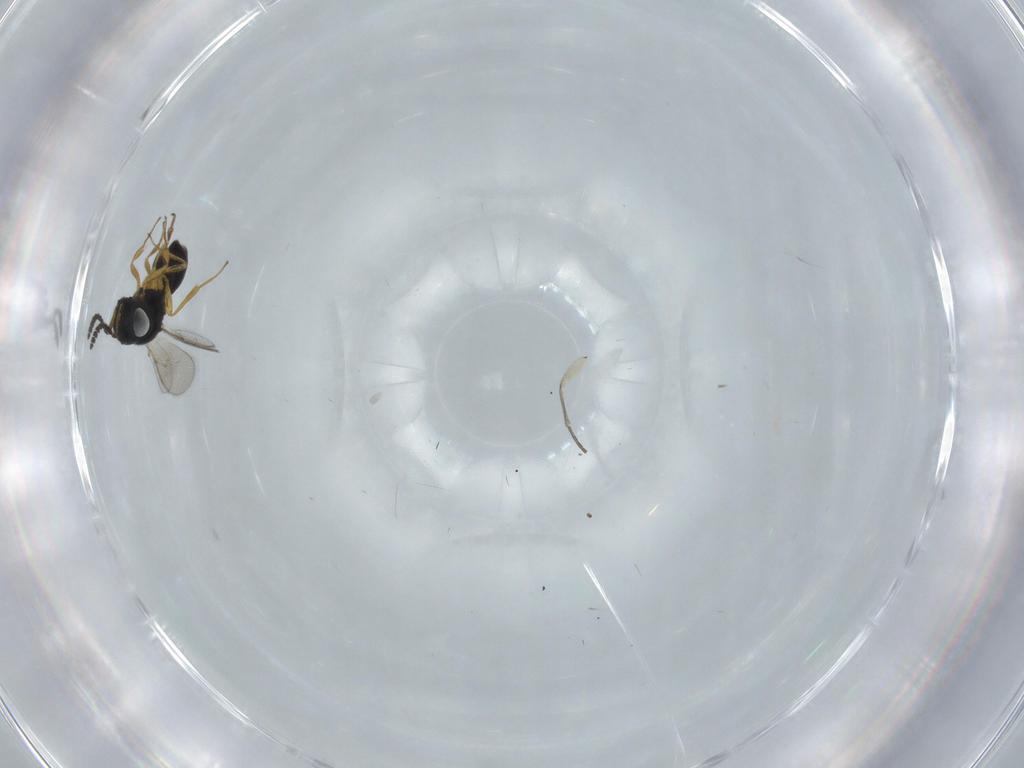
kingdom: Animalia
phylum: Arthropoda
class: Insecta
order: Hymenoptera
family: Scelionidae
